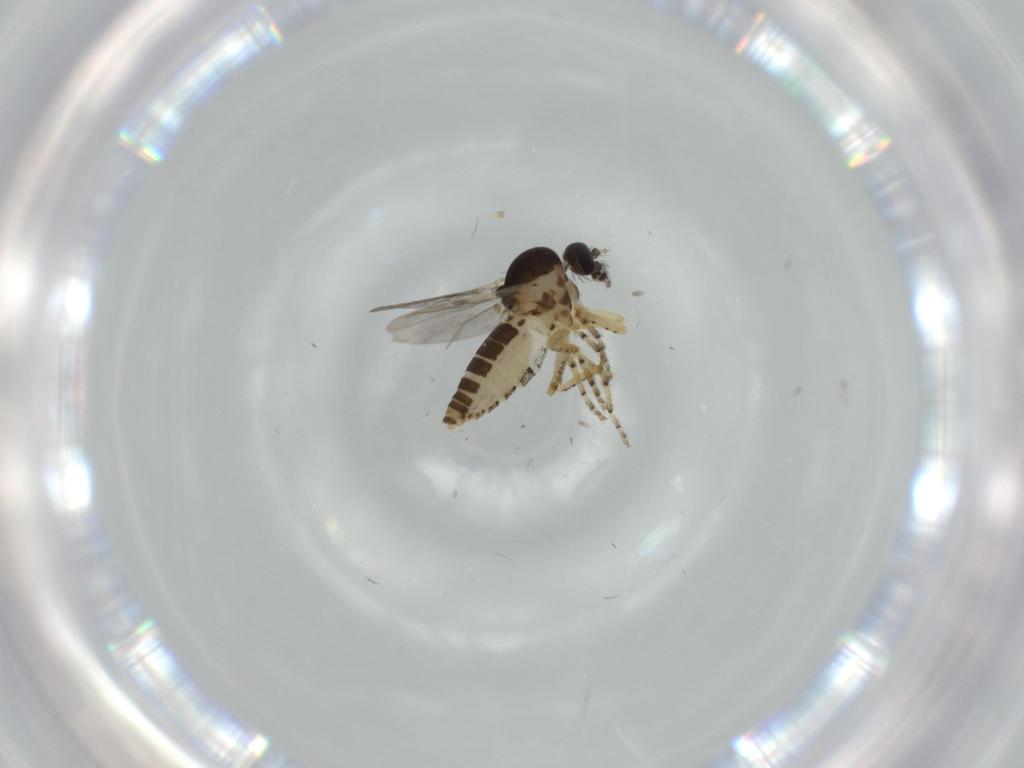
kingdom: Animalia
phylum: Arthropoda
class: Insecta
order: Diptera
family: Ceratopogonidae
